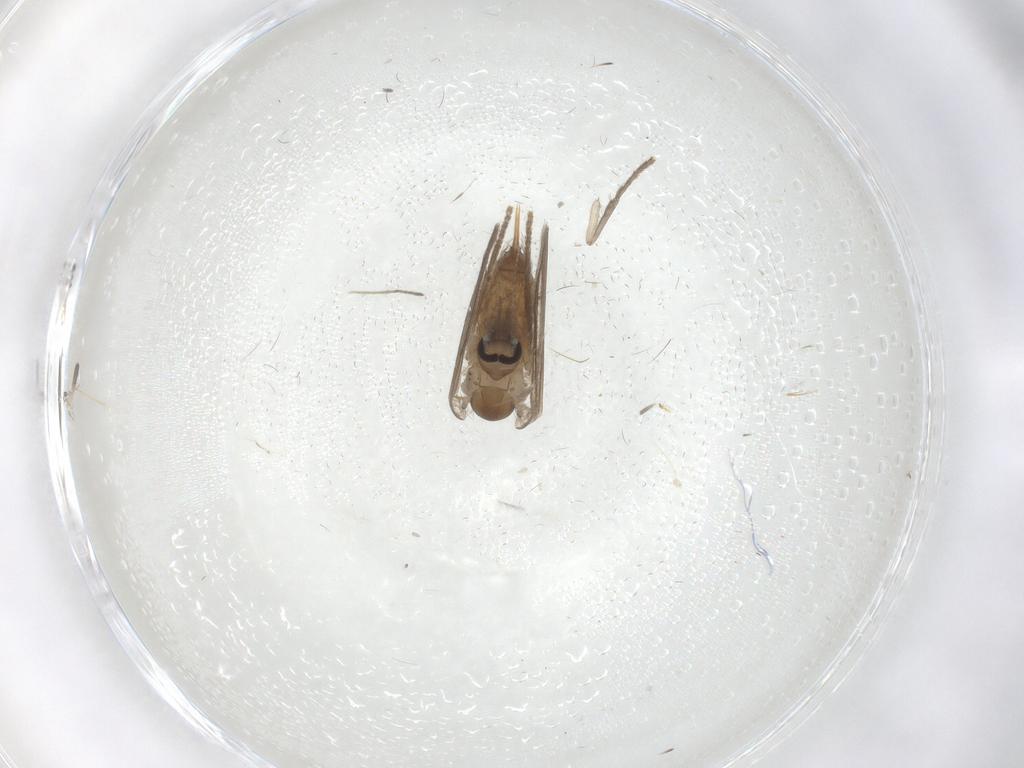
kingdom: Animalia
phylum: Arthropoda
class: Insecta
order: Diptera
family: Psychodidae
